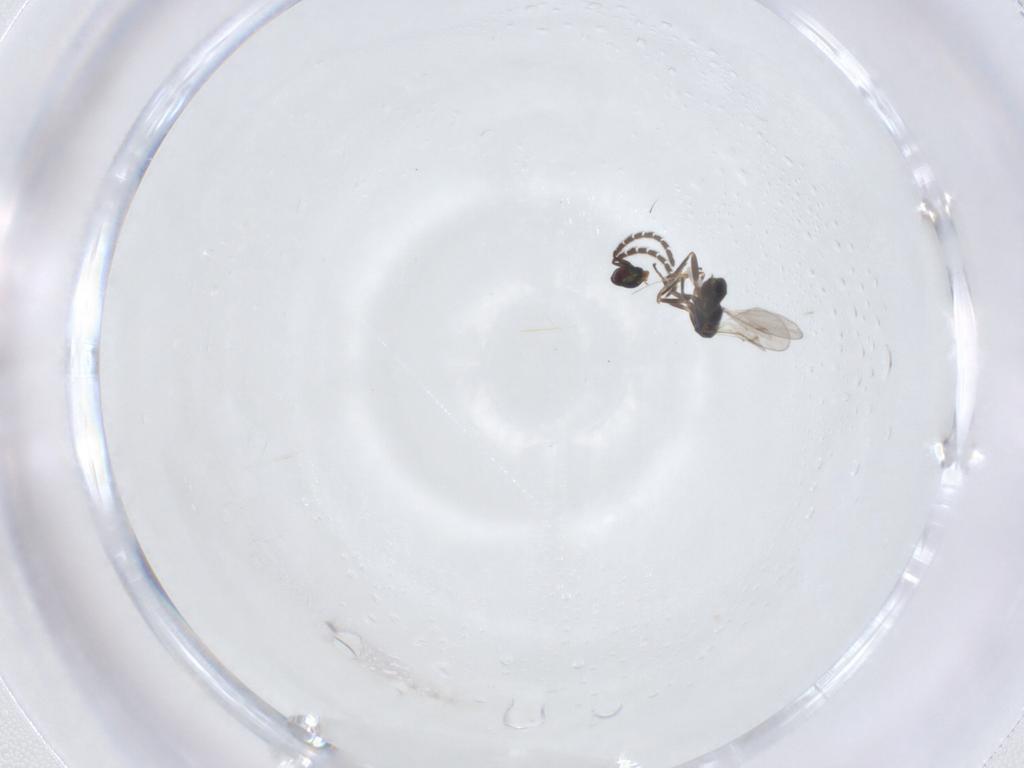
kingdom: Animalia
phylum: Arthropoda
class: Insecta
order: Hymenoptera
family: Encyrtidae
